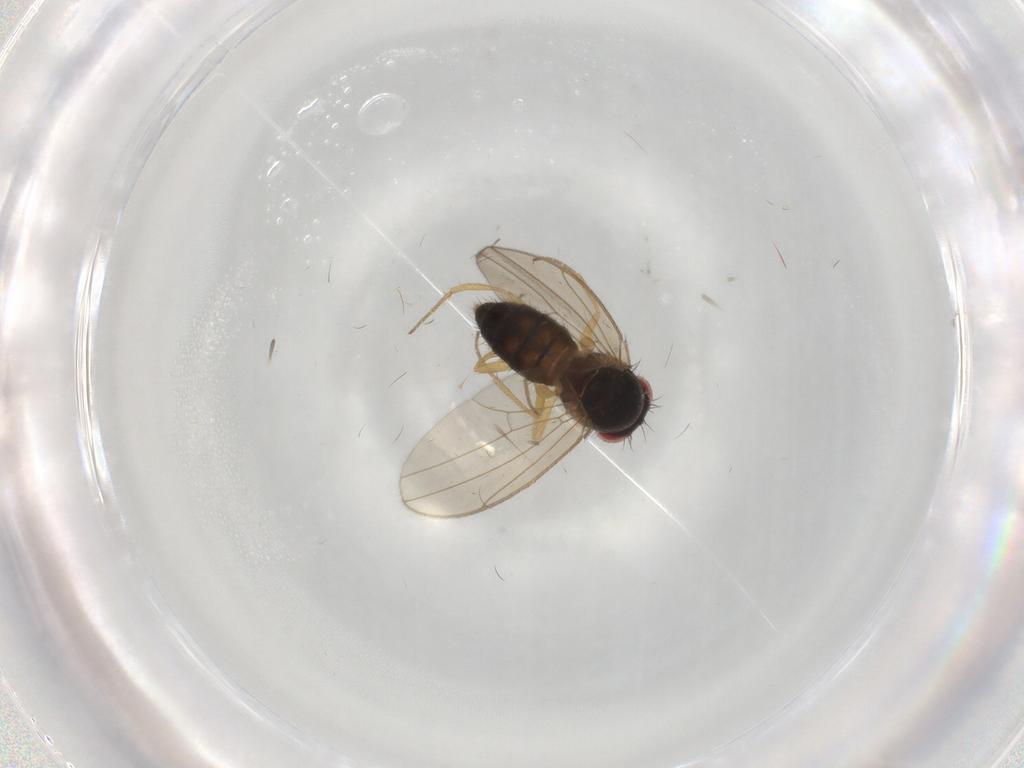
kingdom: Animalia
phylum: Arthropoda
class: Insecta
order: Diptera
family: Drosophilidae
